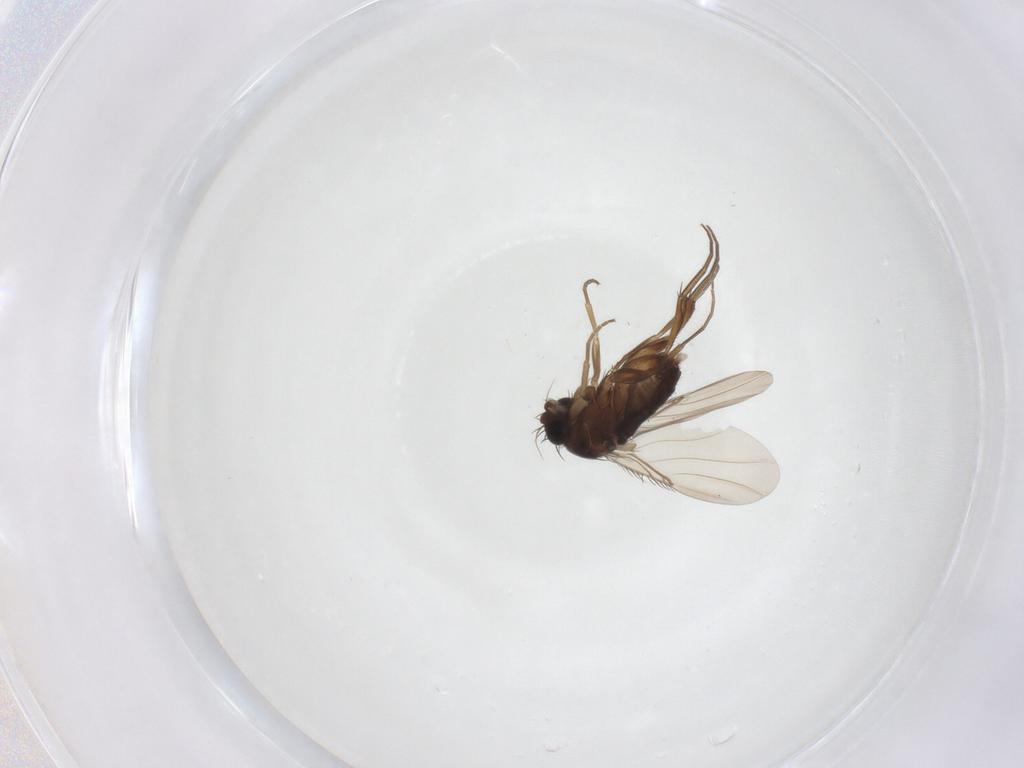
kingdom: Animalia
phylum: Arthropoda
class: Insecta
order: Diptera
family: Phoridae
